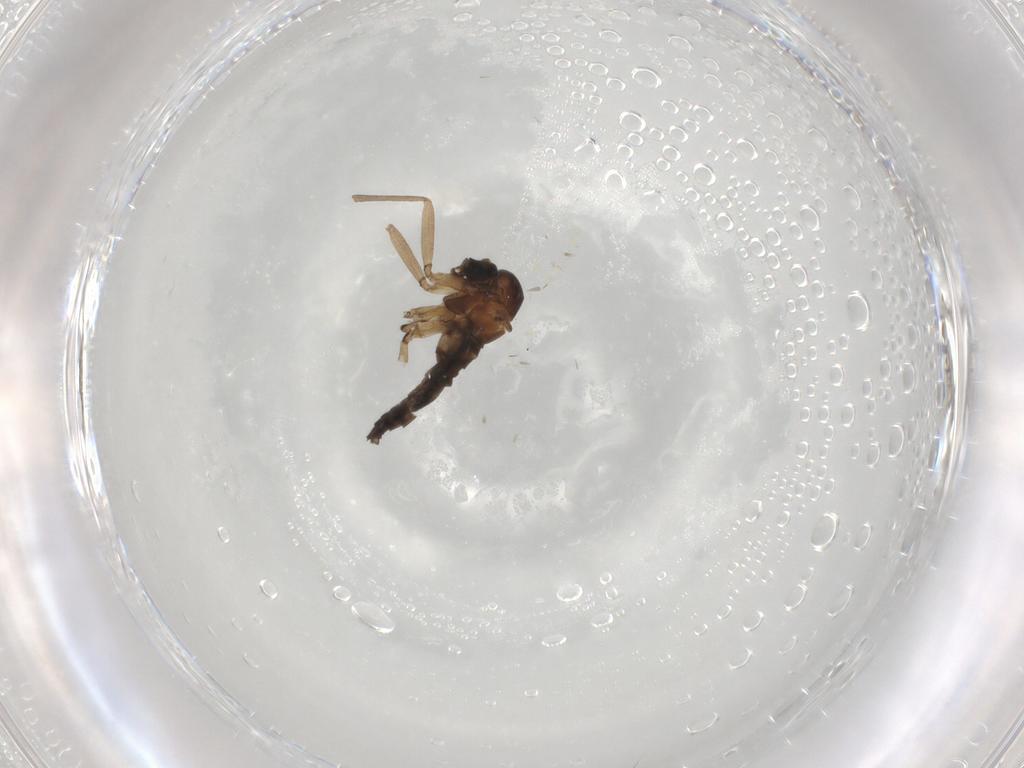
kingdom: Animalia
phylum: Arthropoda
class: Insecta
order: Diptera
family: Sciaridae
